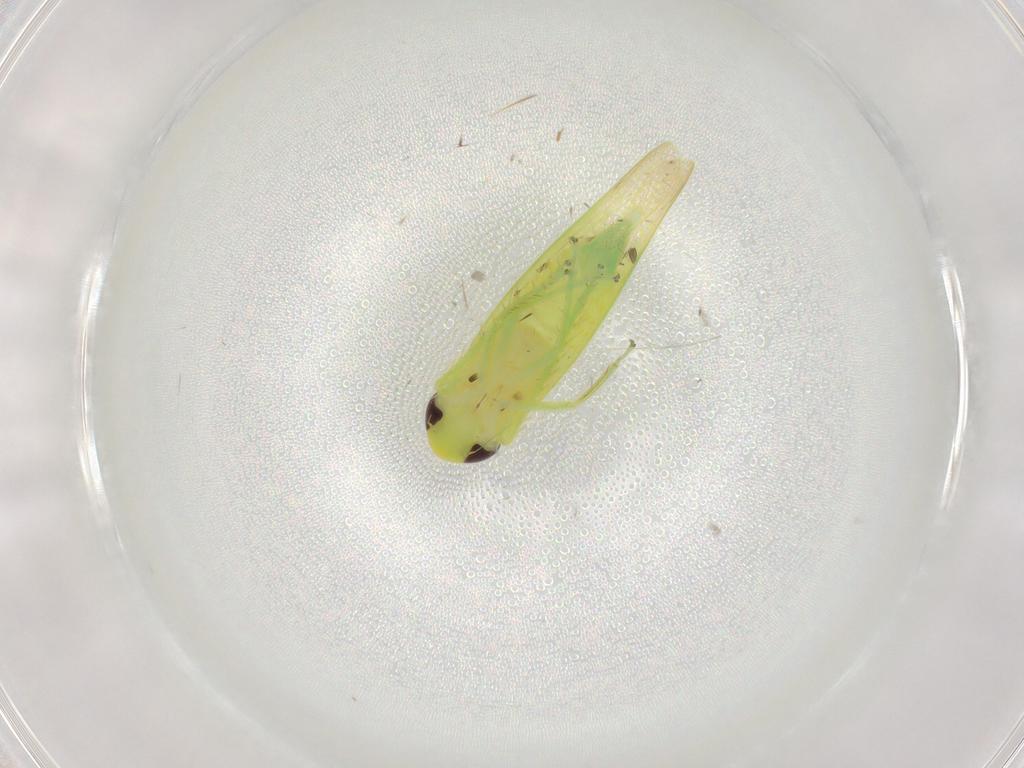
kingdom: Animalia
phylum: Arthropoda
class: Insecta
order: Hemiptera
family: Cicadellidae
